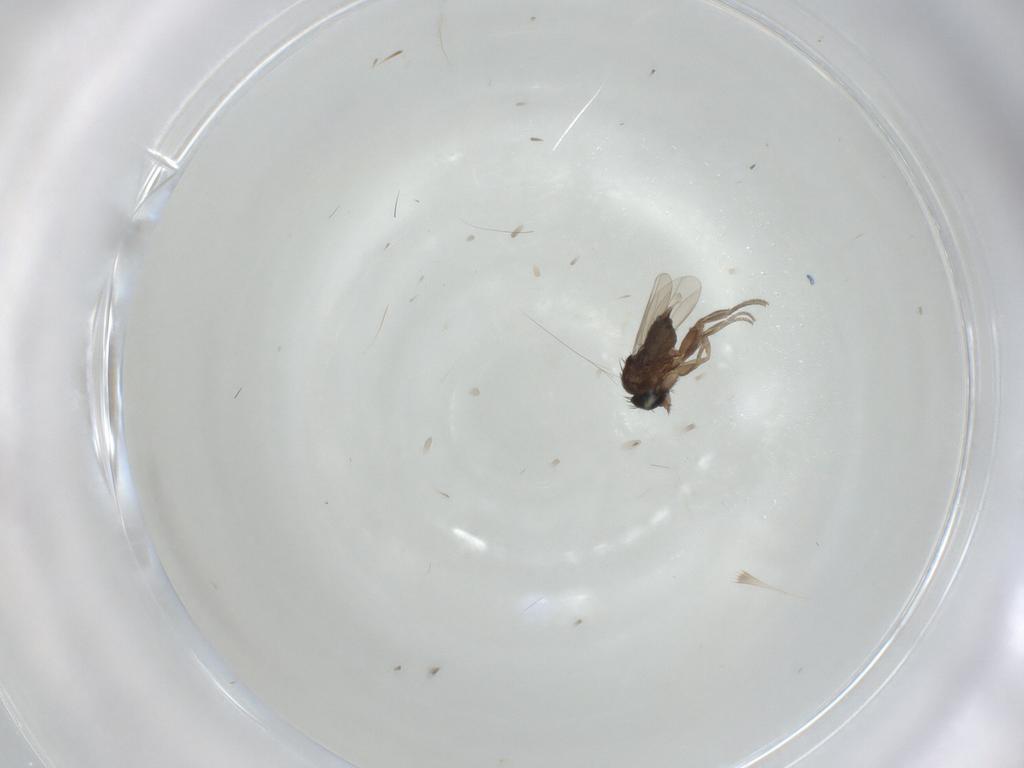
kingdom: Animalia
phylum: Arthropoda
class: Insecta
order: Diptera
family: Phoridae
